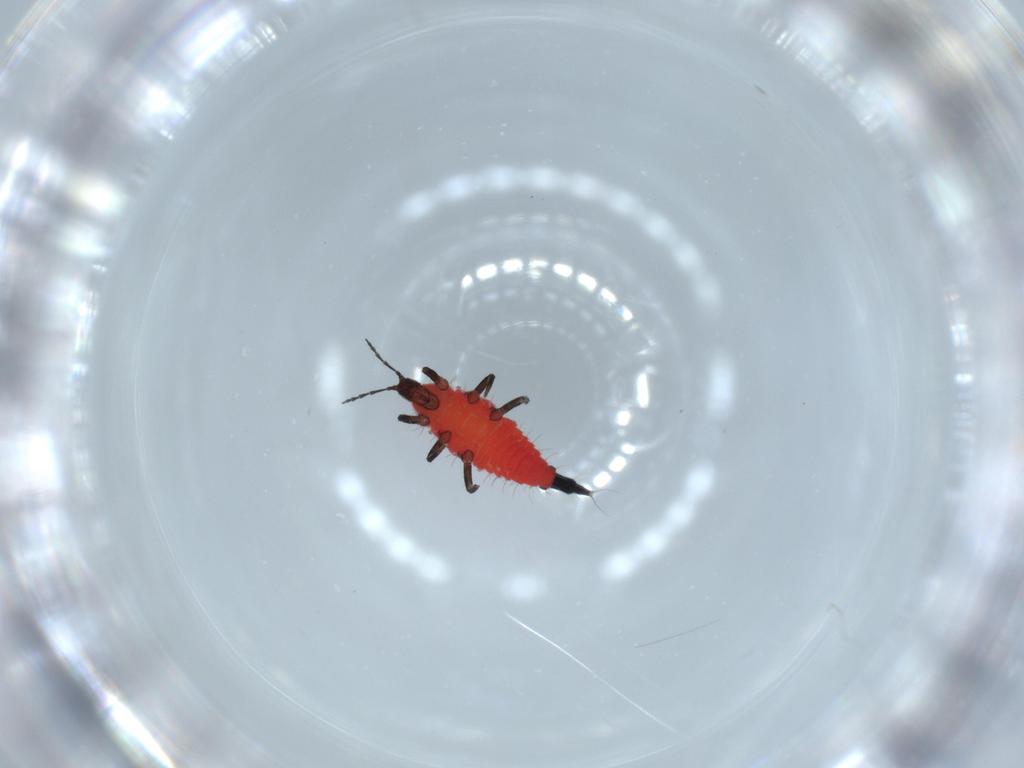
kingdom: Animalia
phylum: Arthropoda
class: Insecta
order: Thysanoptera
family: Phlaeothripidae
